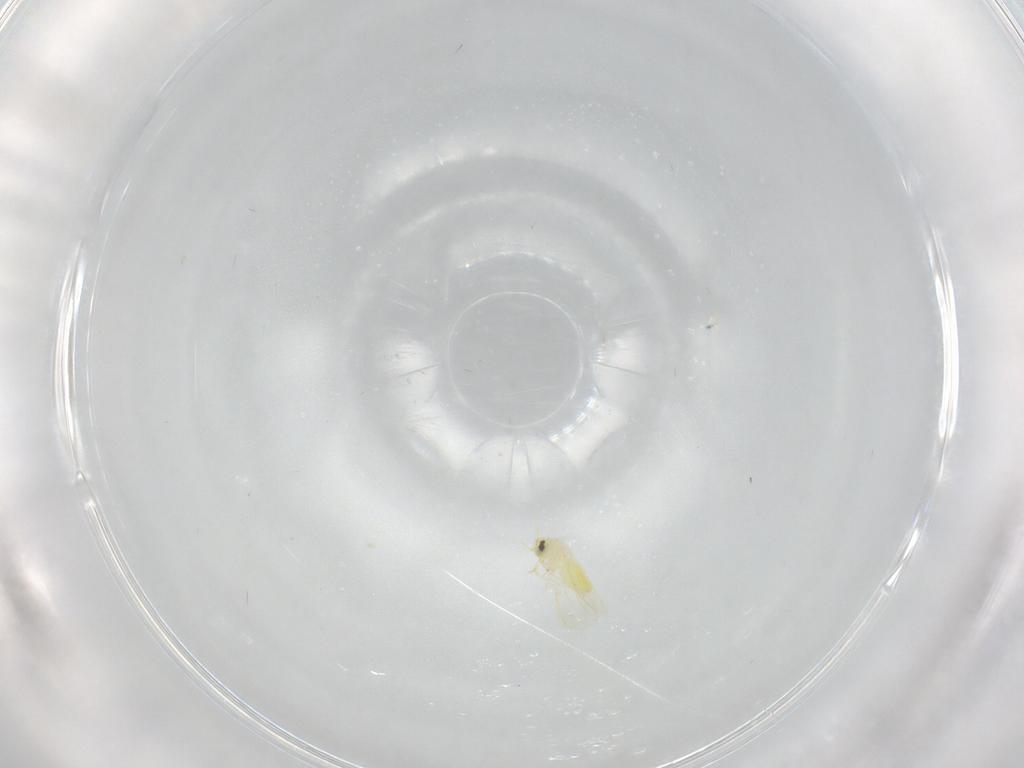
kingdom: Animalia
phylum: Arthropoda
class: Insecta
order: Hemiptera
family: Aleyrodidae
